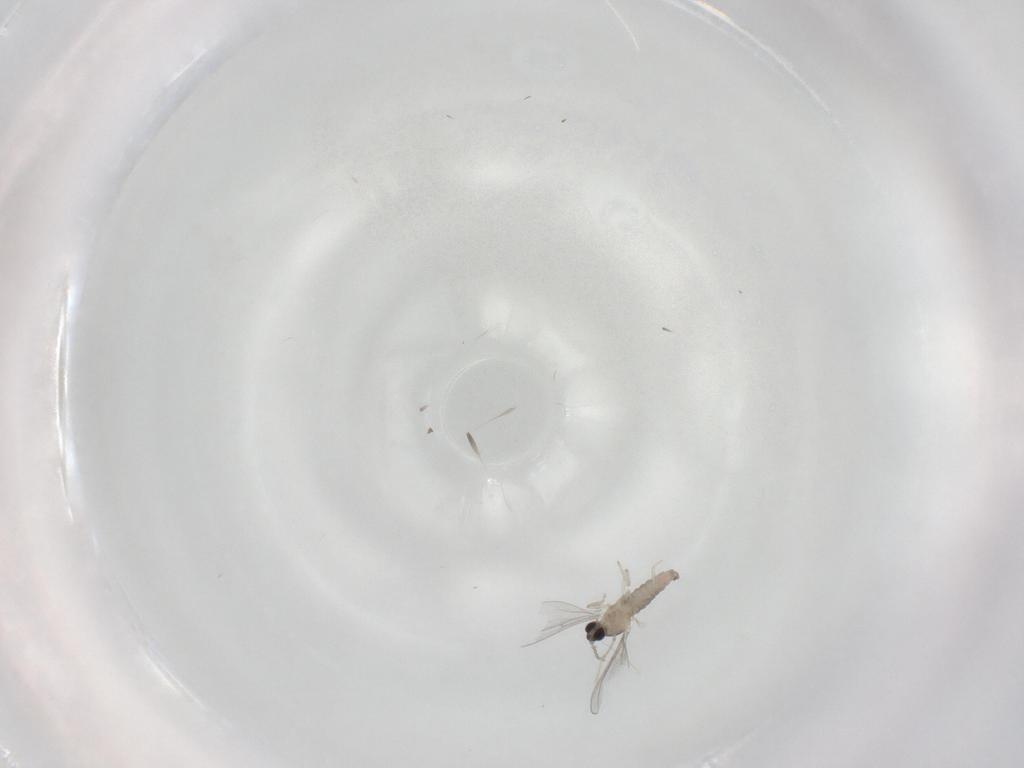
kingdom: Animalia
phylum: Arthropoda
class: Insecta
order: Diptera
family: Cecidomyiidae
